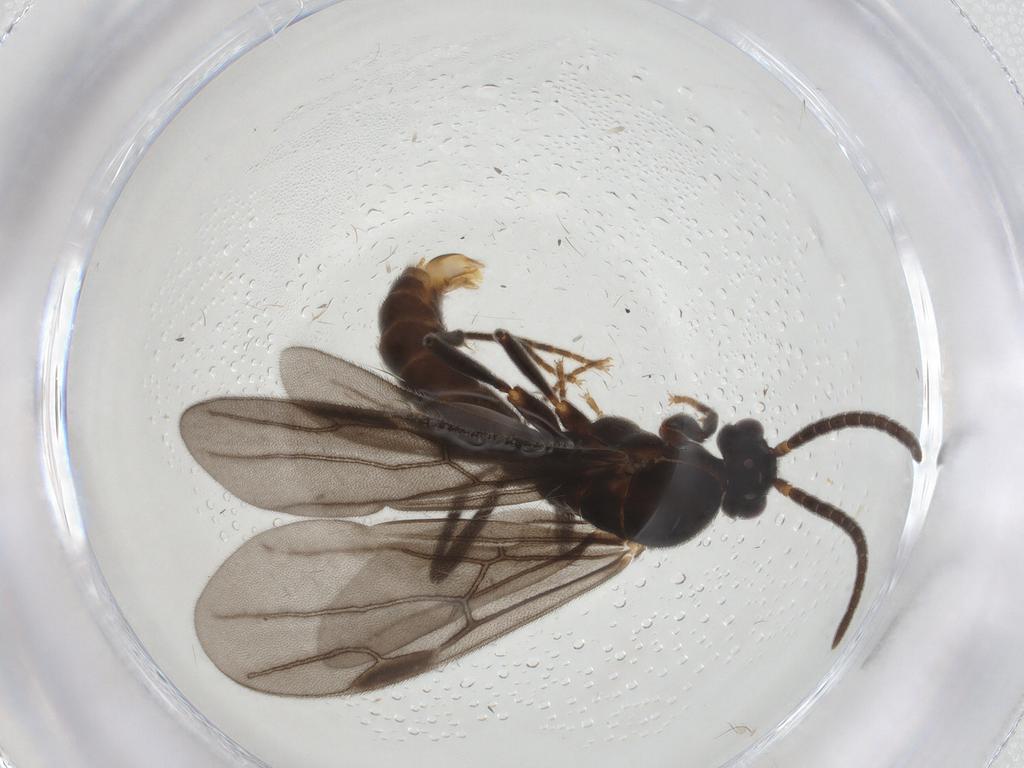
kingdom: Animalia
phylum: Arthropoda
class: Insecta
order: Hymenoptera
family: Formicidae
